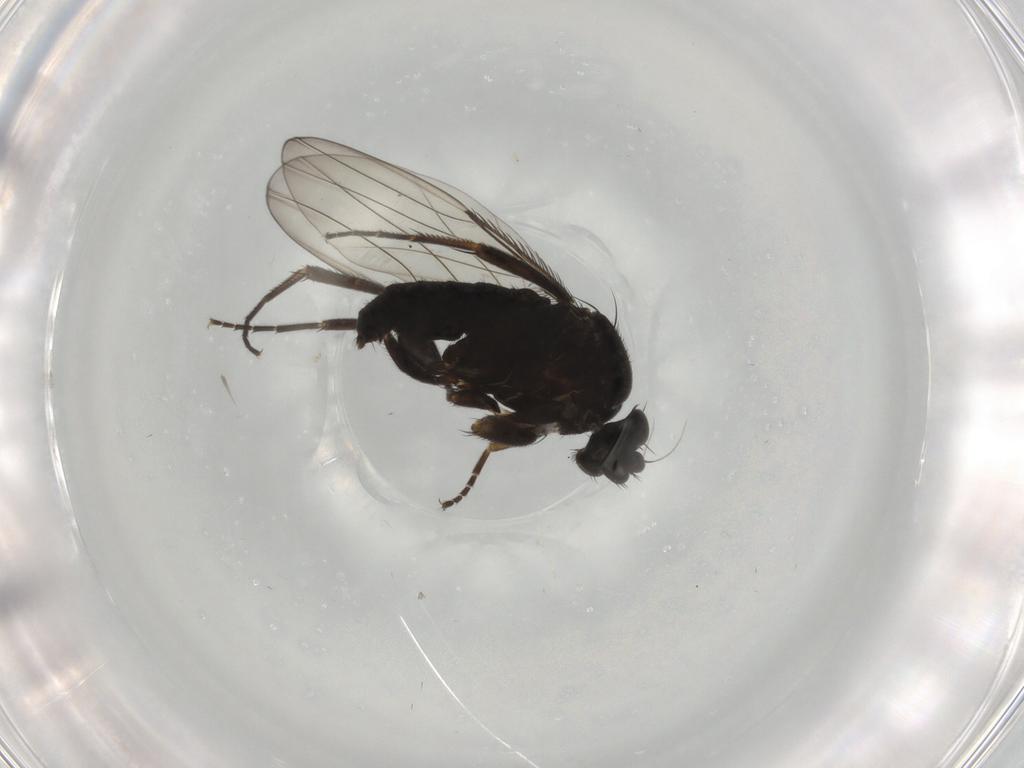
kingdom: Animalia
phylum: Arthropoda
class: Insecta
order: Diptera
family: Phoridae
